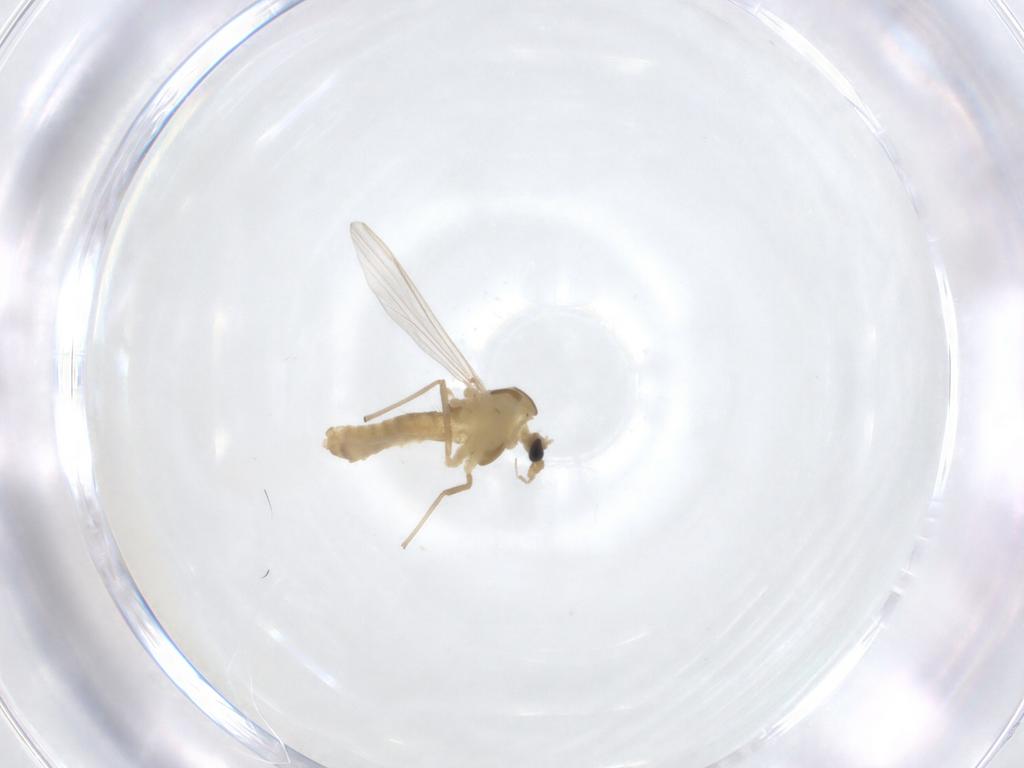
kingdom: Animalia
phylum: Arthropoda
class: Insecta
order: Diptera
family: Chironomidae
